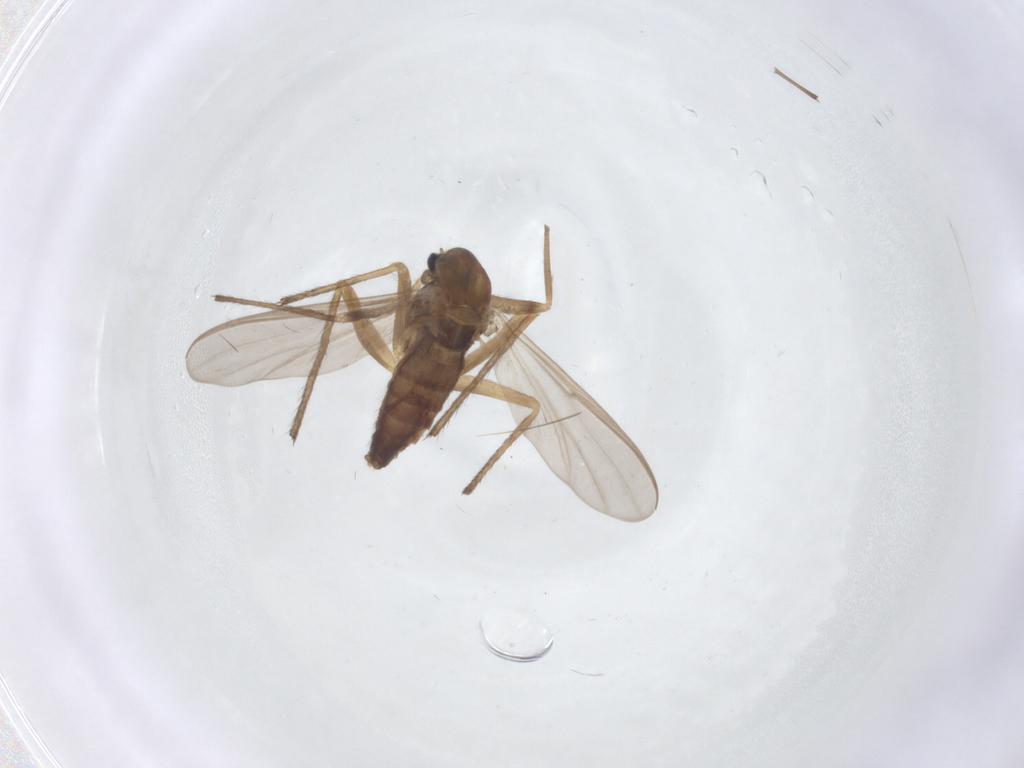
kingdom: Animalia
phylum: Arthropoda
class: Insecta
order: Diptera
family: Chironomidae
